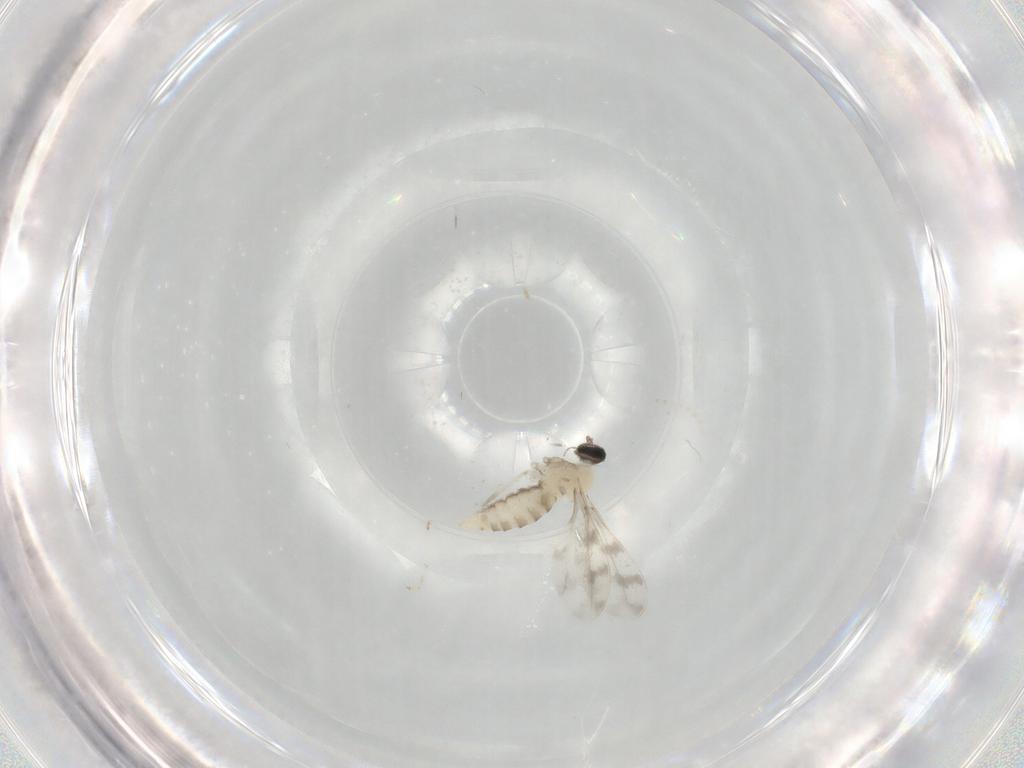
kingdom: Animalia
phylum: Arthropoda
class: Insecta
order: Diptera
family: Cecidomyiidae
